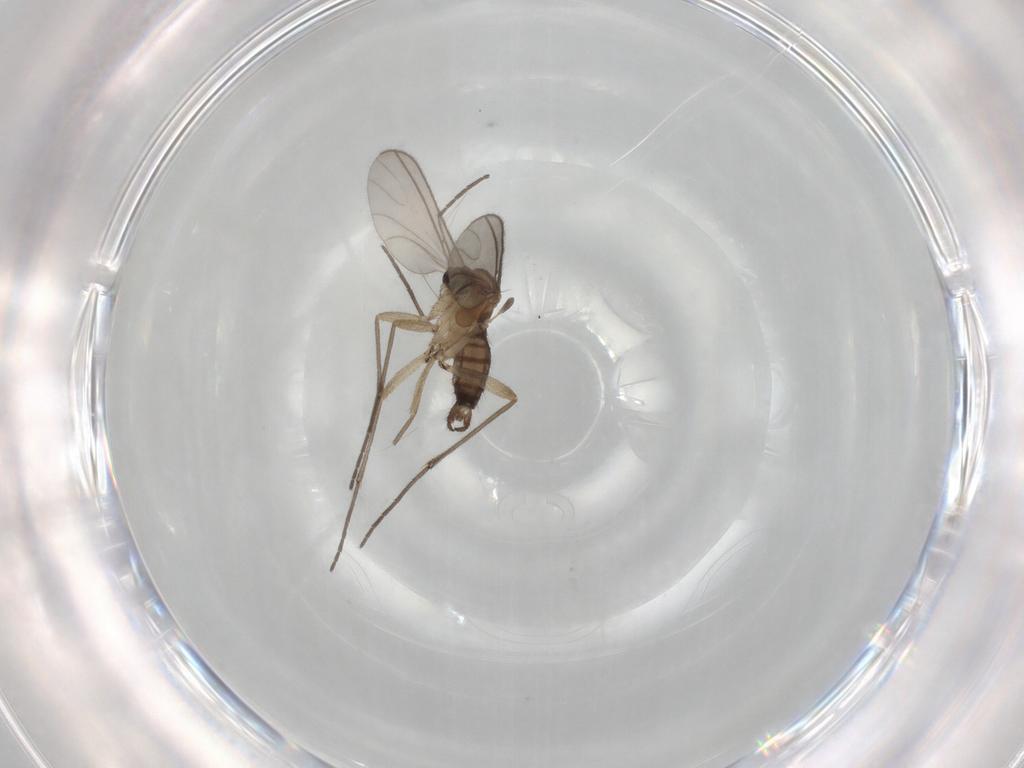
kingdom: Animalia
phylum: Arthropoda
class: Insecta
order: Diptera
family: Sciaridae
